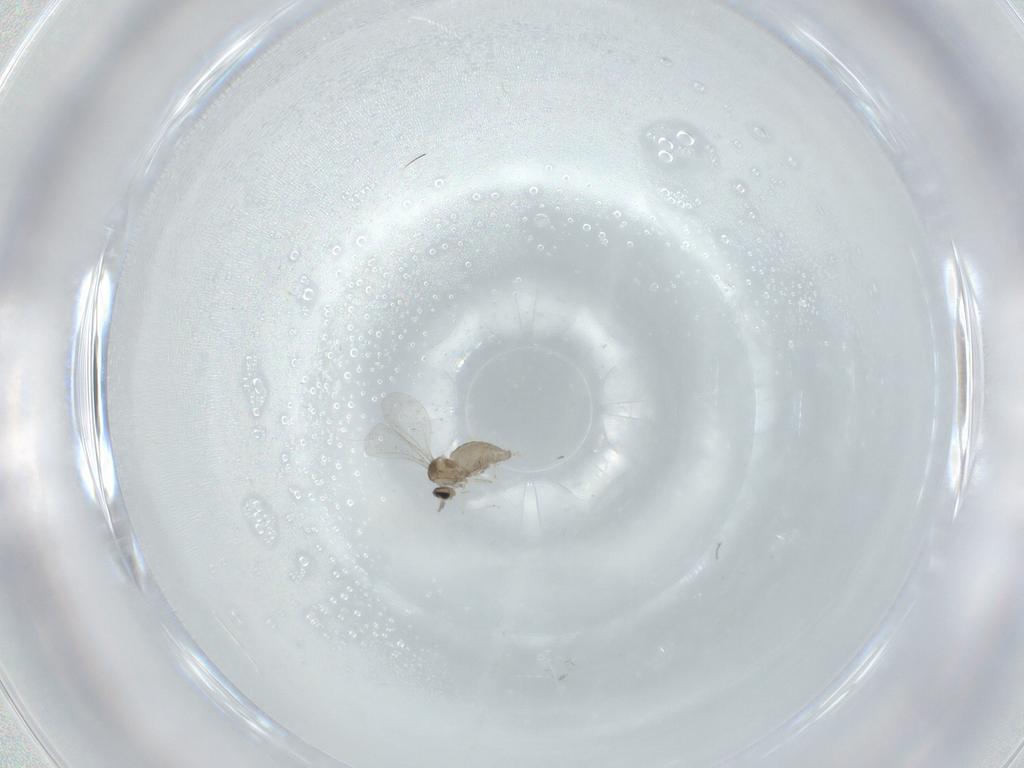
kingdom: Animalia
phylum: Arthropoda
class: Insecta
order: Diptera
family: Cecidomyiidae
